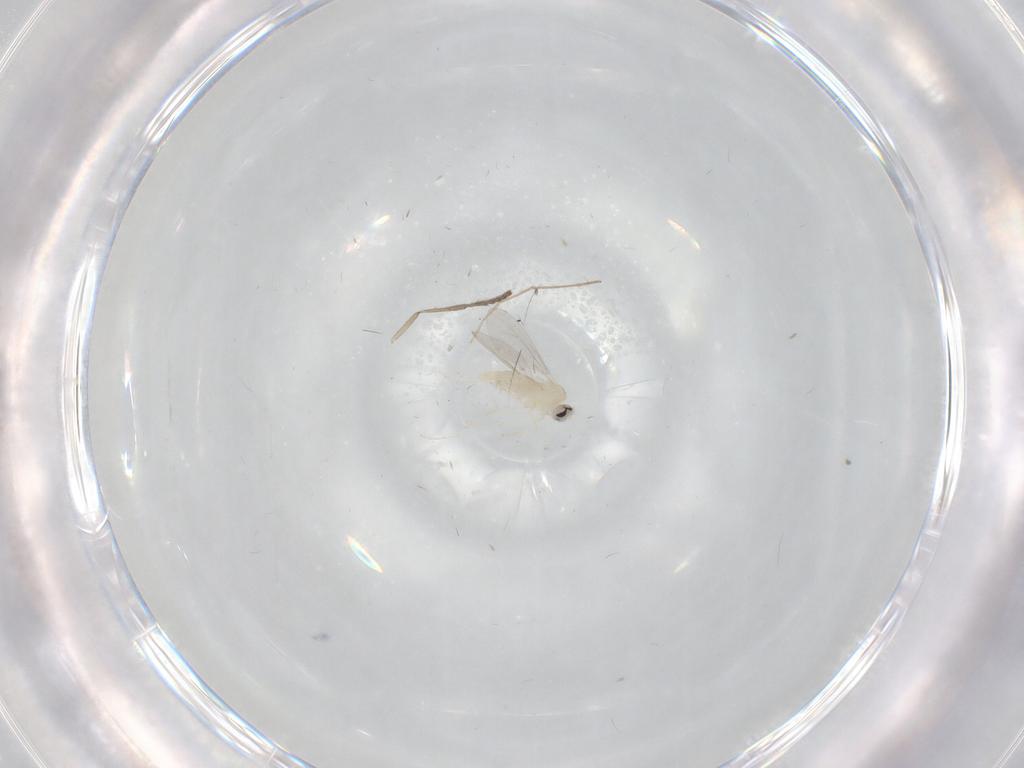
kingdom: Animalia
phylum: Arthropoda
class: Insecta
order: Diptera
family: Cecidomyiidae
